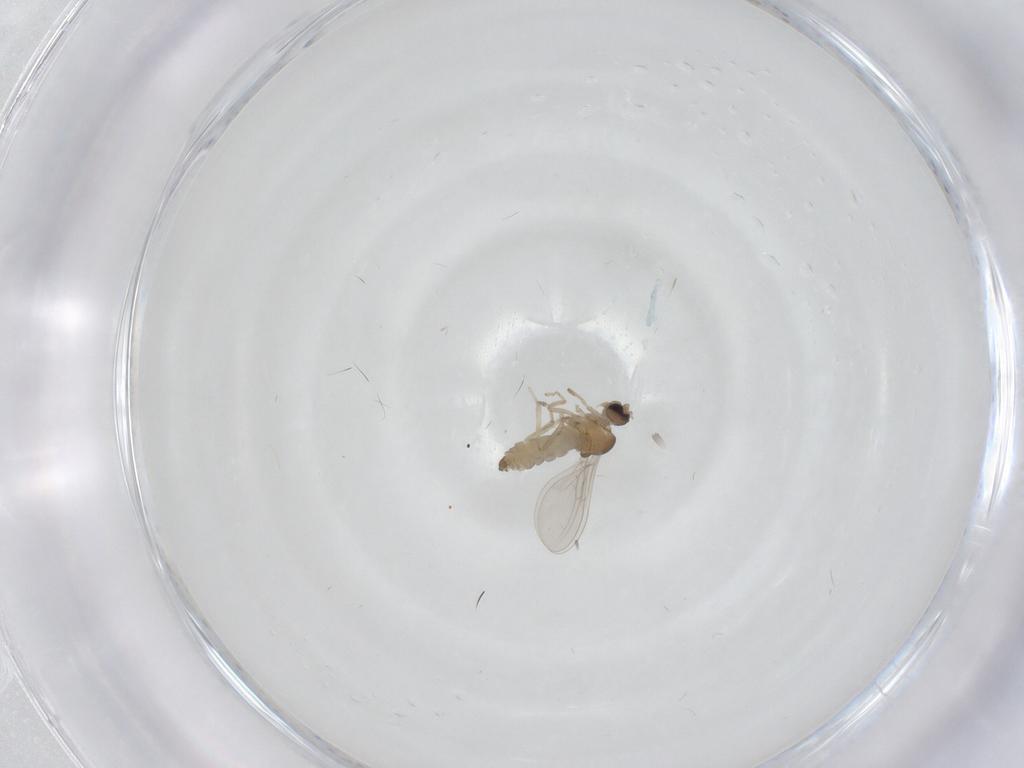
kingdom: Animalia
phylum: Arthropoda
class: Insecta
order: Diptera
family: Cecidomyiidae
